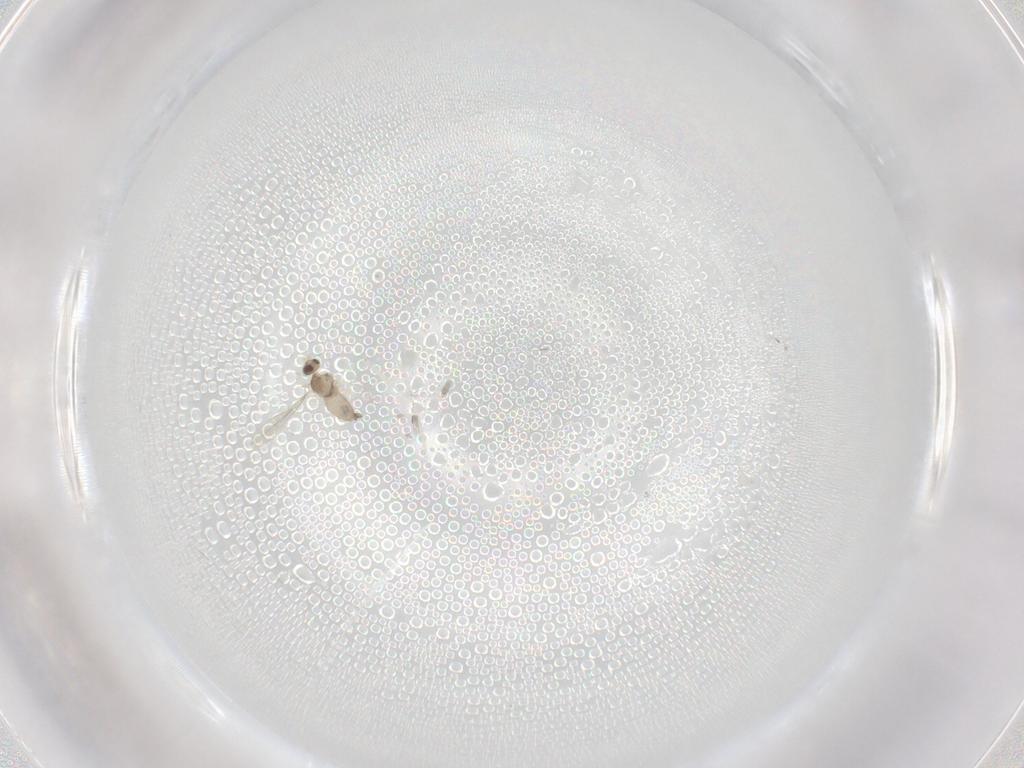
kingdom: Animalia
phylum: Arthropoda
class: Insecta
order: Diptera
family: Cecidomyiidae
